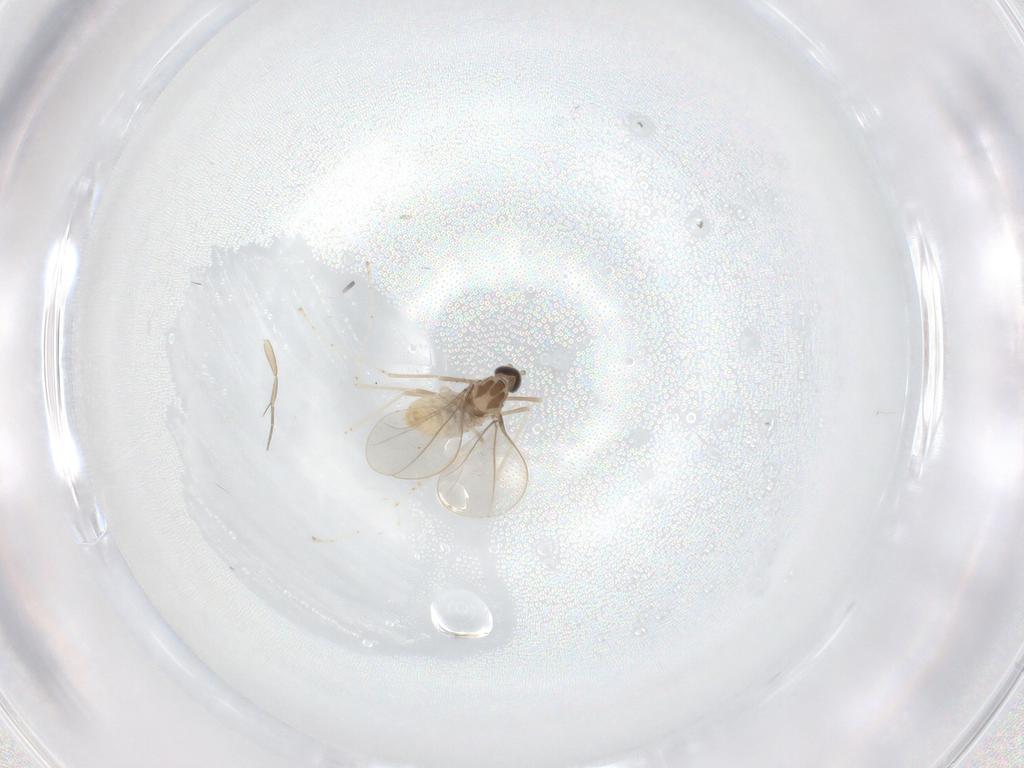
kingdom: Animalia
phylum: Arthropoda
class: Insecta
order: Diptera
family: Cecidomyiidae
